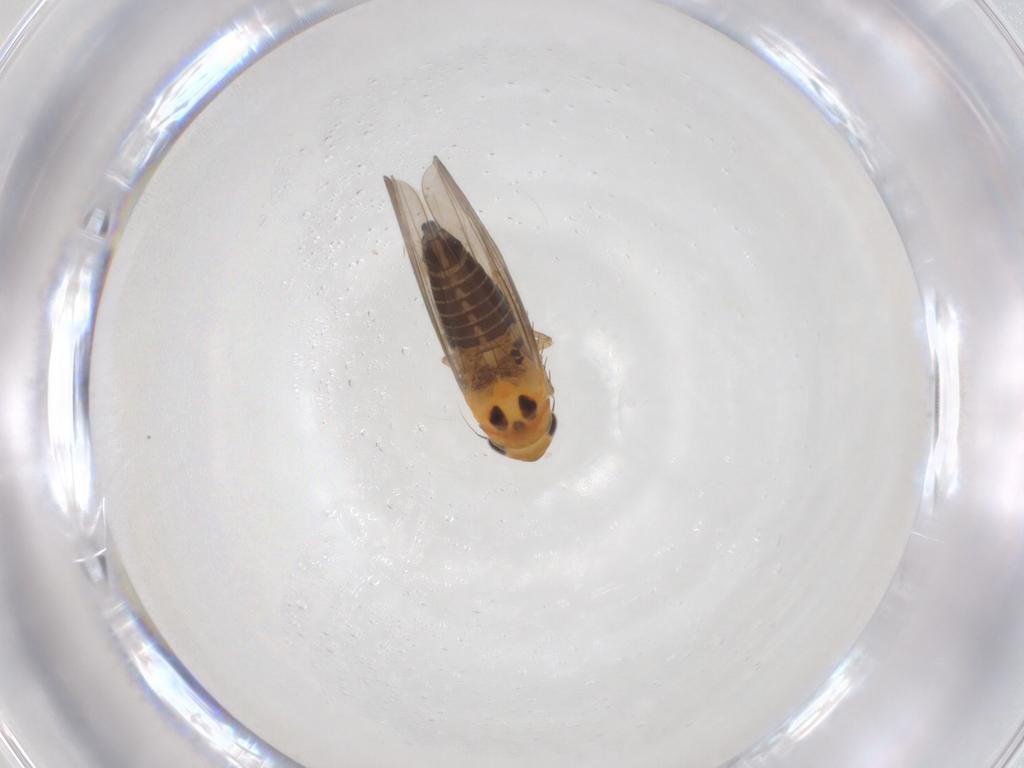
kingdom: Animalia
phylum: Arthropoda
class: Insecta
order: Hemiptera
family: Cicadellidae
